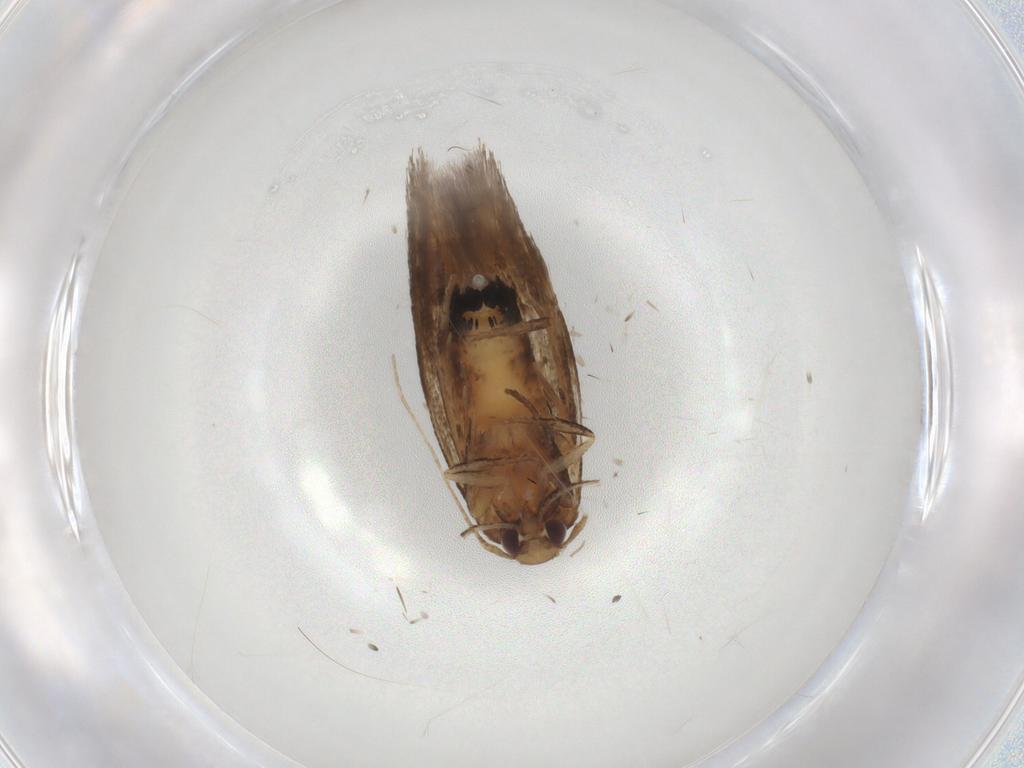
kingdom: Animalia
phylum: Arthropoda
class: Insecta
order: Lepidoptera
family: Cosmopterigidae
